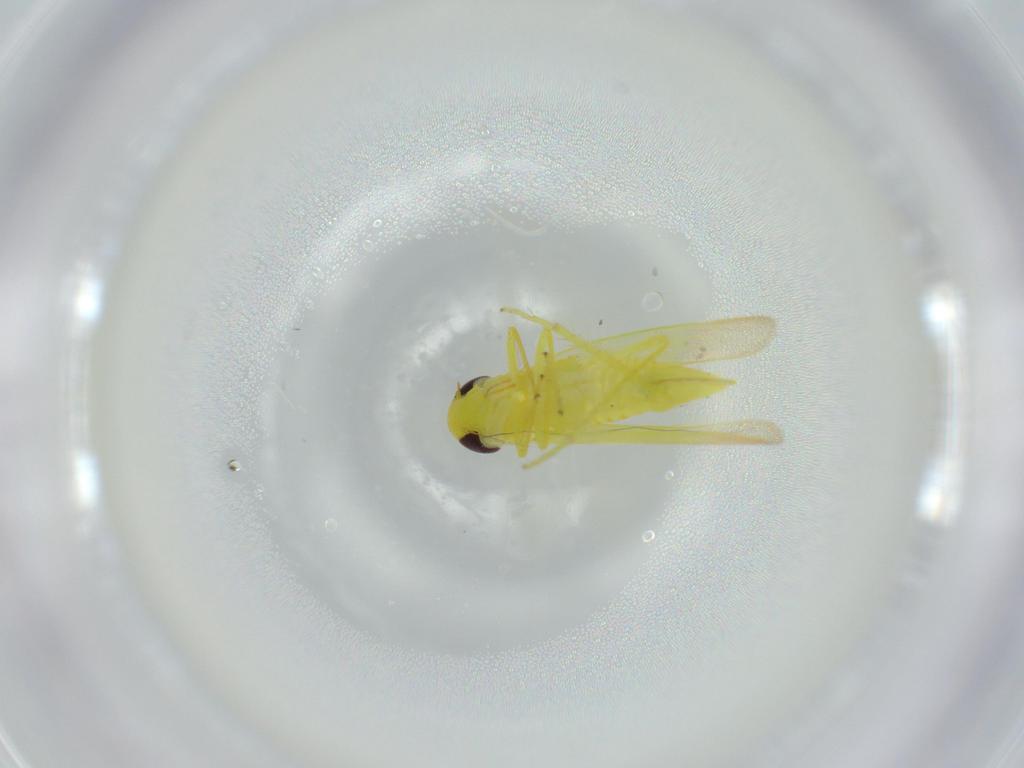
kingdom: Animalia
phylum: Arthropoda
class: Insecta
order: Hemiptera
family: Cicadellidae
